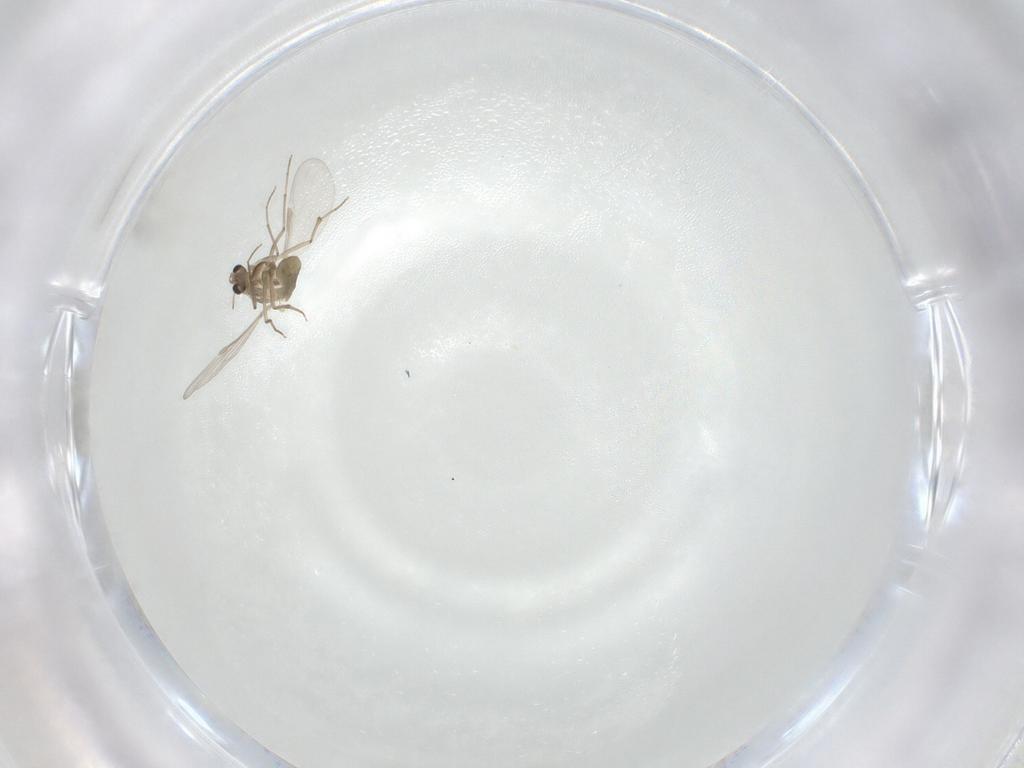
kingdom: Animalia
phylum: Arthropoda
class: Insecta
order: Diptera
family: Chironomidae
